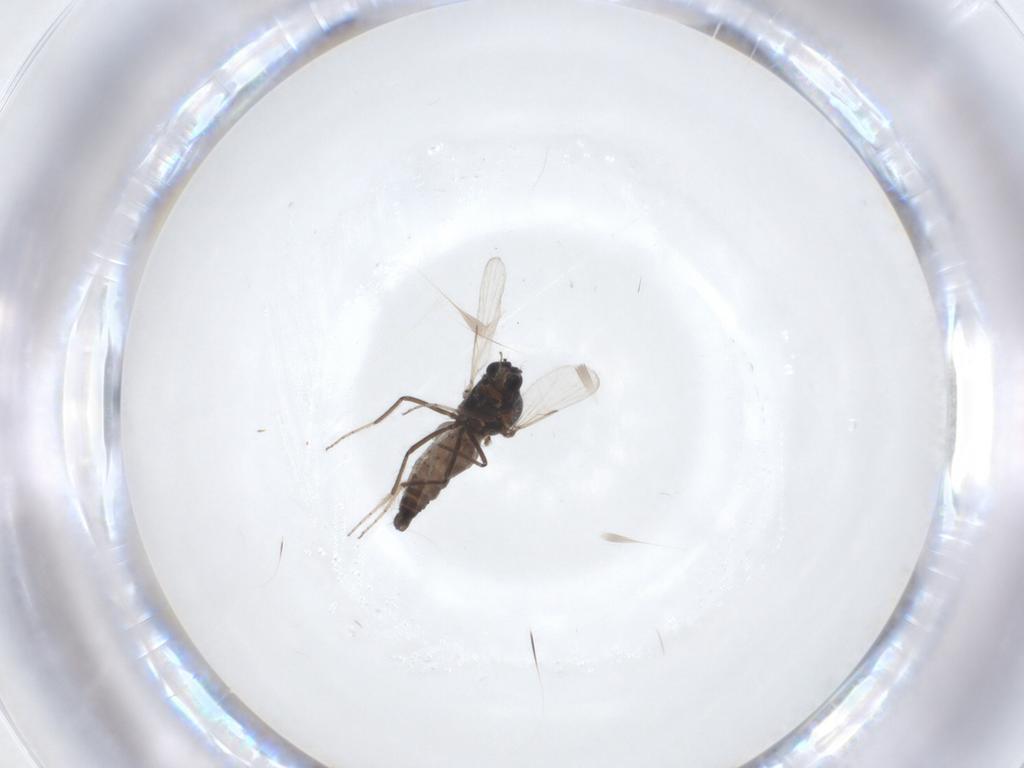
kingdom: Animalia
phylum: Arthropoda
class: Insecta
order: Diptera
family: Ceratopogonidae
